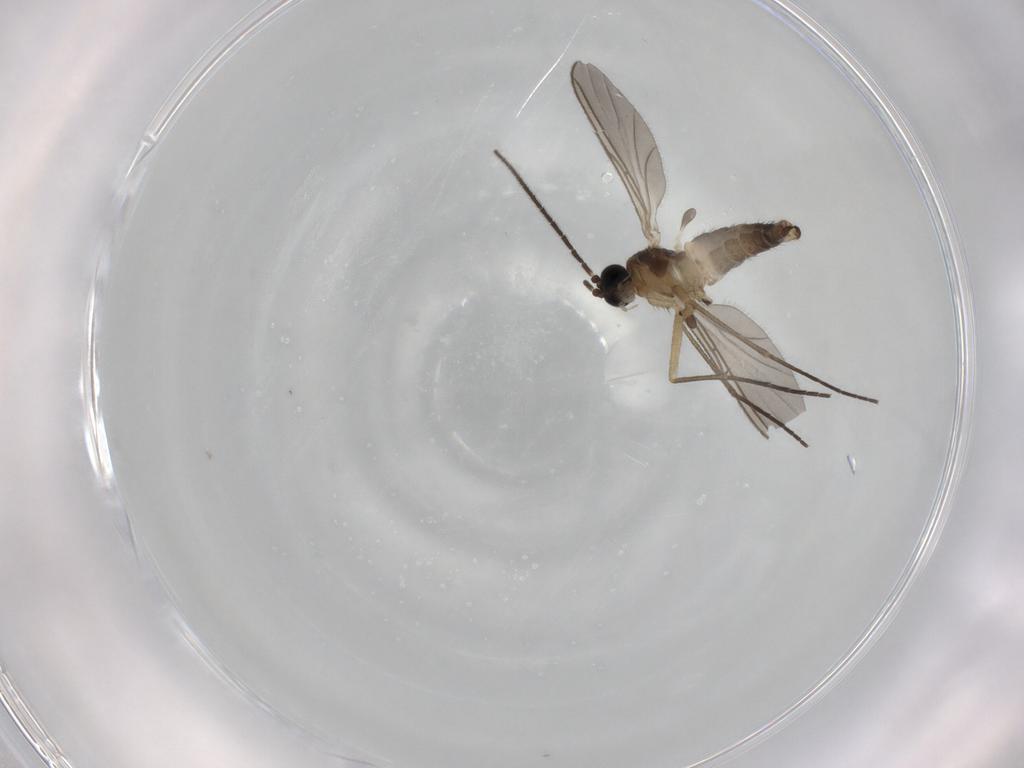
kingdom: Animalia
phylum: Arthropoda
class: Insecta
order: Diptera
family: Sciaridae
